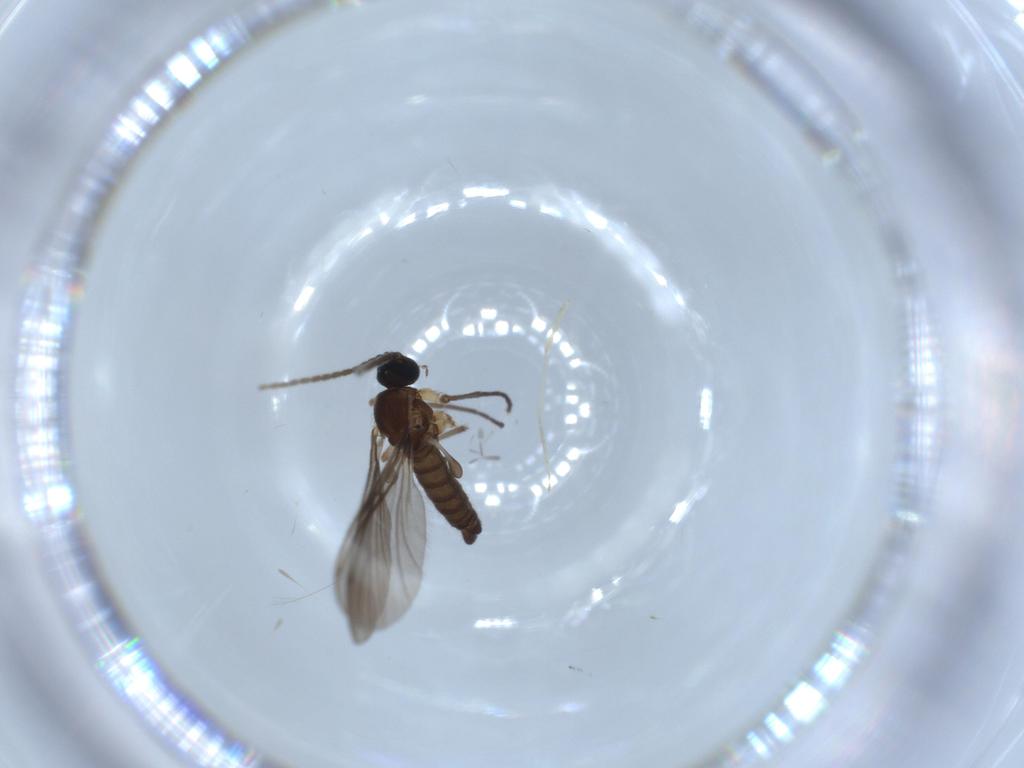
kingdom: Animalia
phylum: Arthropoda
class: Insecta
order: Diptera
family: Sciaridae
